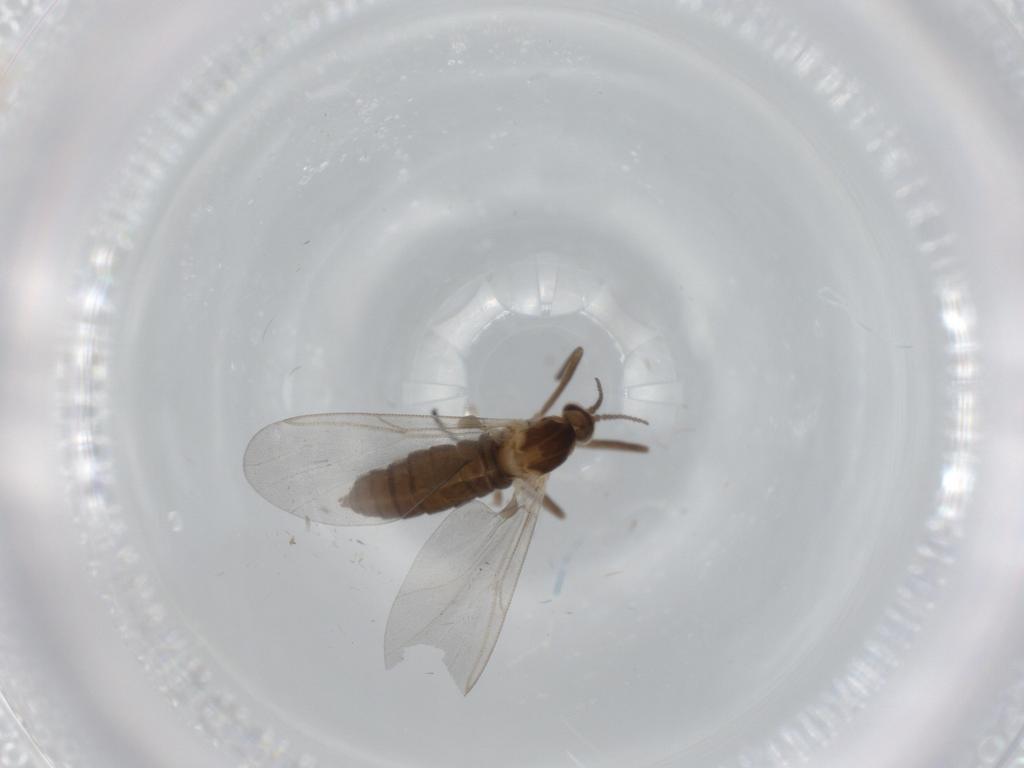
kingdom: Animalia
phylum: Arthropoda
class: Insecta
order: Diptera
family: Cecidomyiidae
